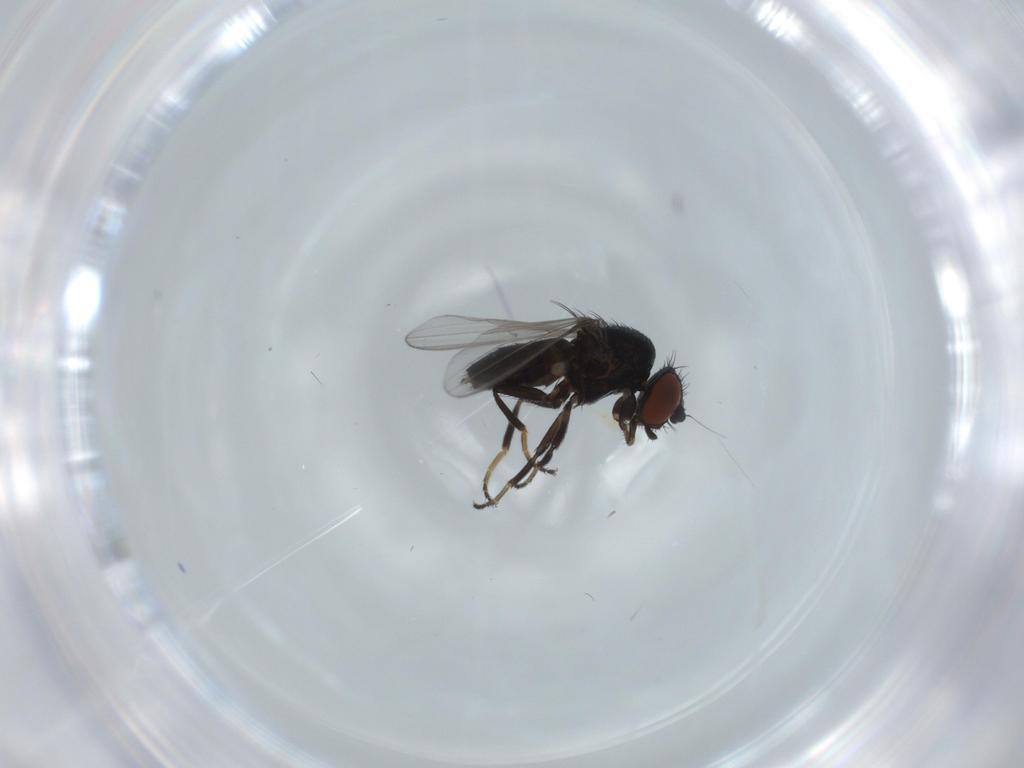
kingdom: Animalia
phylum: Arthropoda
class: Insecta
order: Diptera
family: Milichiidae
